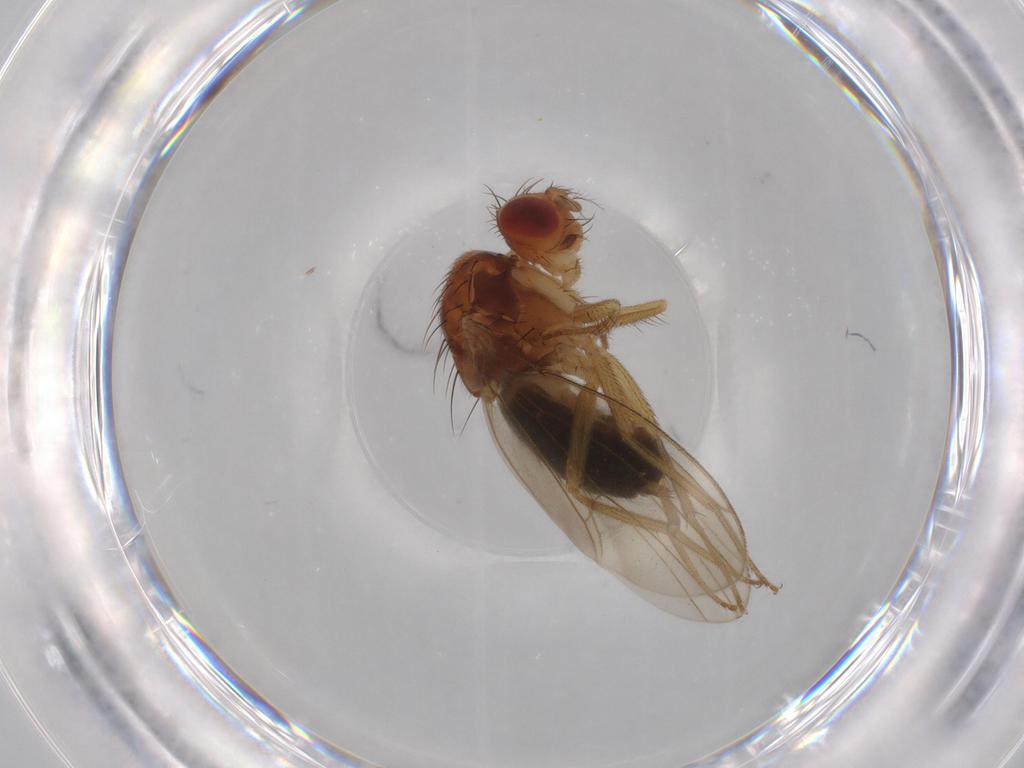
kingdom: Animalia
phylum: Arthropoda
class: Insecta
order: Diptera
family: Drosophilidae
